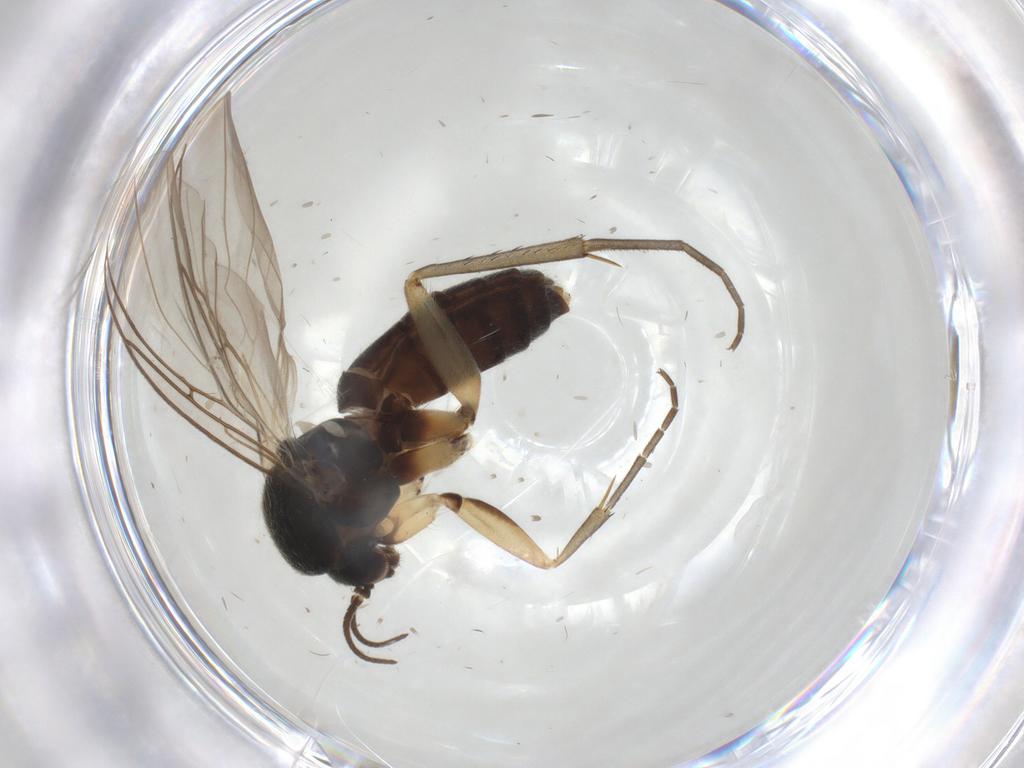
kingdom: Animalia
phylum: Arthropoda
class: Insecta
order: Diptera
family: Mycetophilidae
